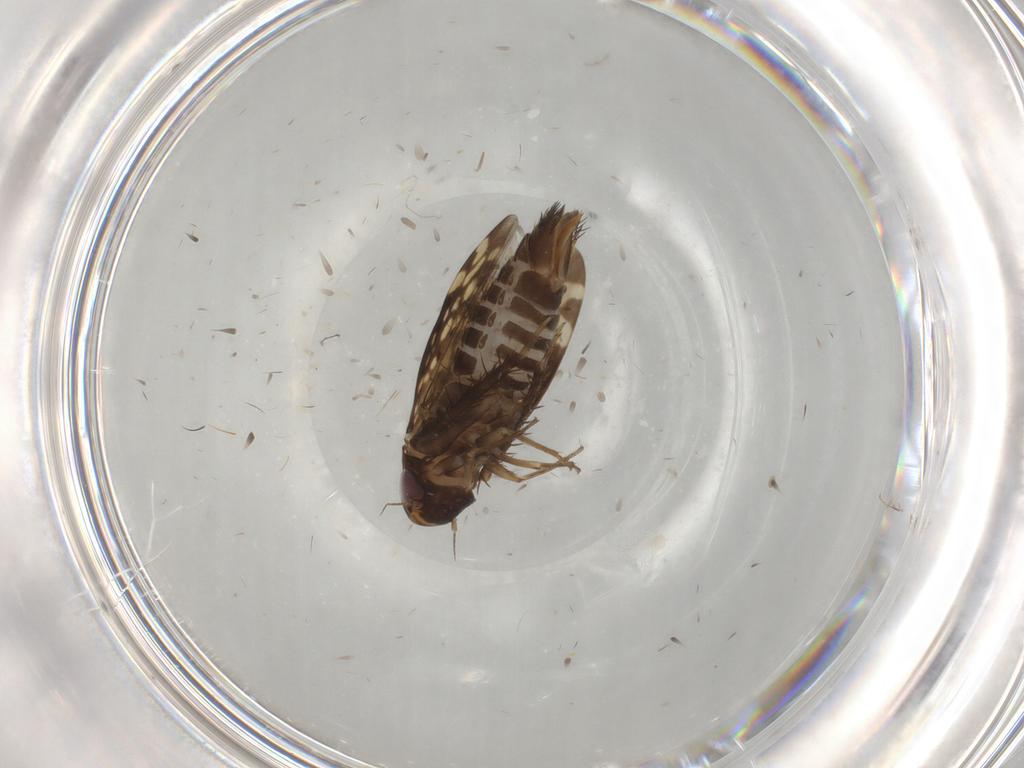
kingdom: Animalia
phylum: Arthropoda
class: Insecta
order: Hemiptera
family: Cicadellidae
